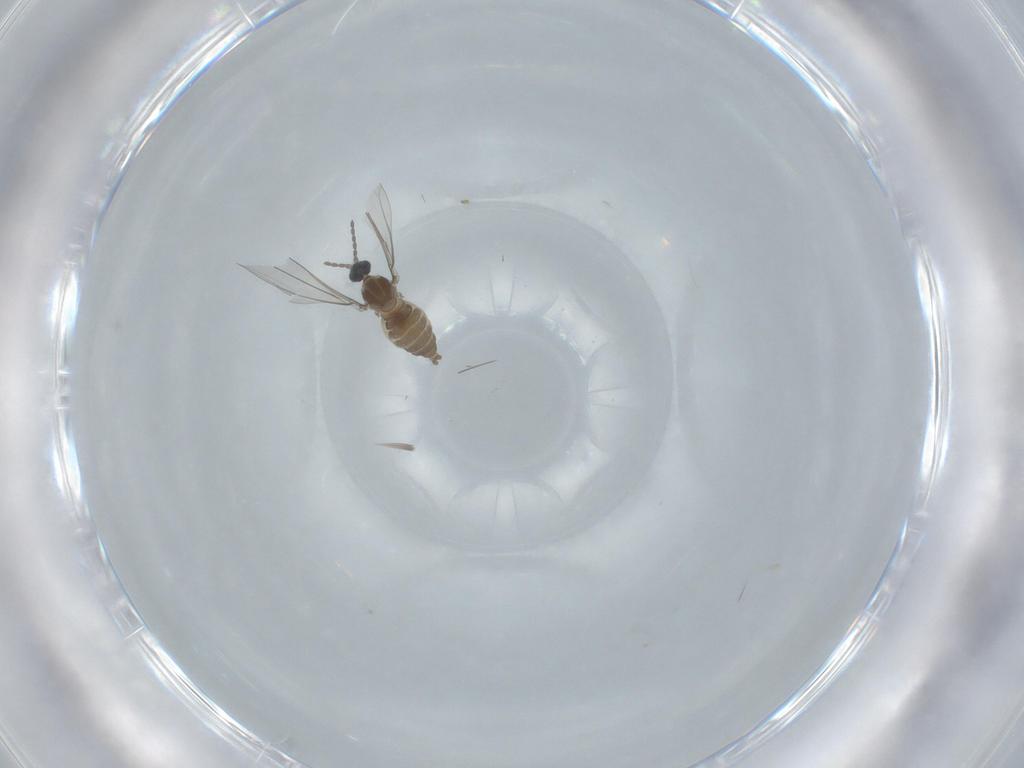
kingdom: Animalia
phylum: Arthropoda
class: Insecta
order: Diptera
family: Cecidomyiidae
